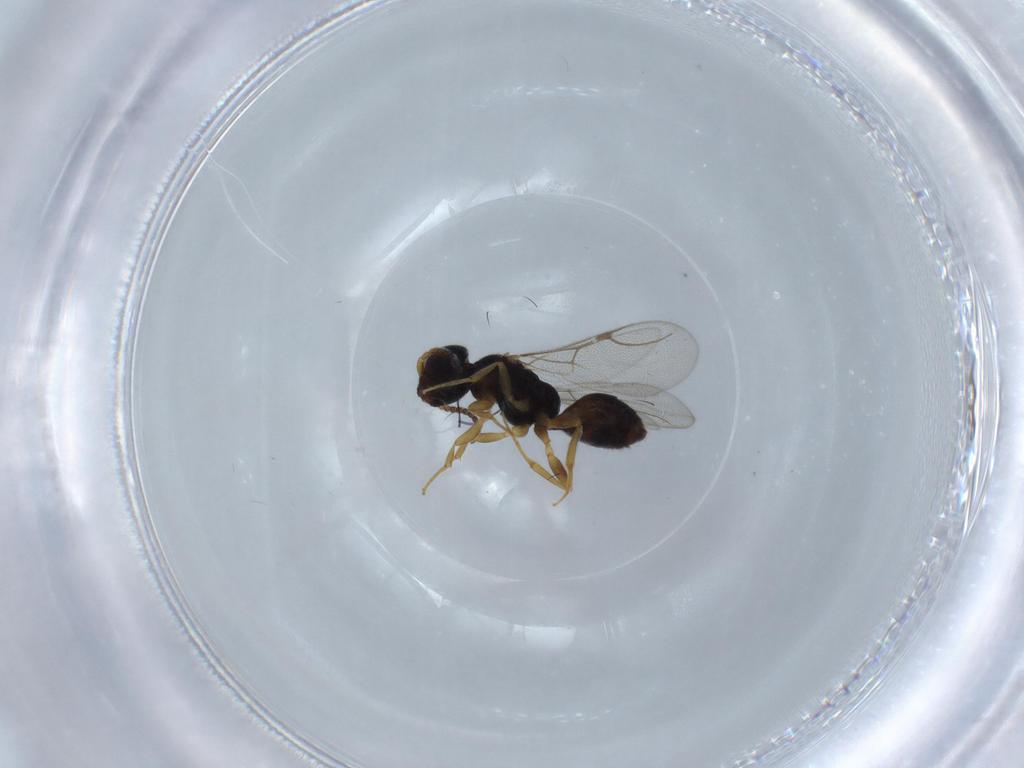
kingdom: Animalia
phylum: Arthropoda
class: Insecta
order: Hymenoptera
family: Bethylidae
